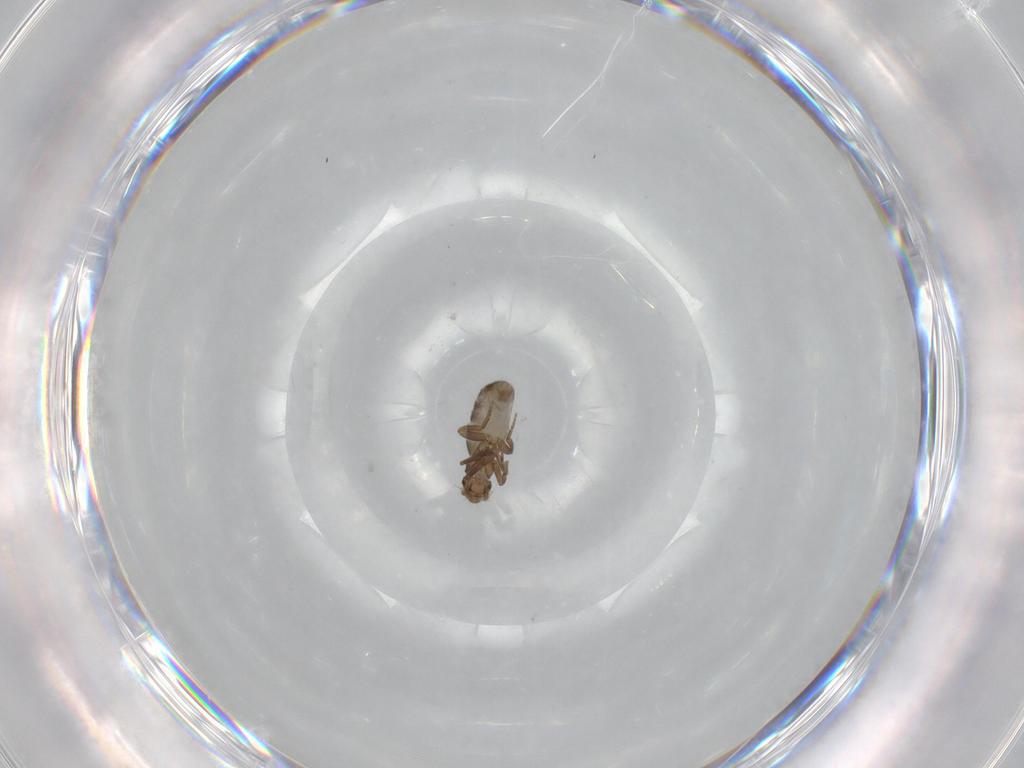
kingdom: Animalia
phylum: Arthropoda
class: Insecta
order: Diptera
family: Phoridae
